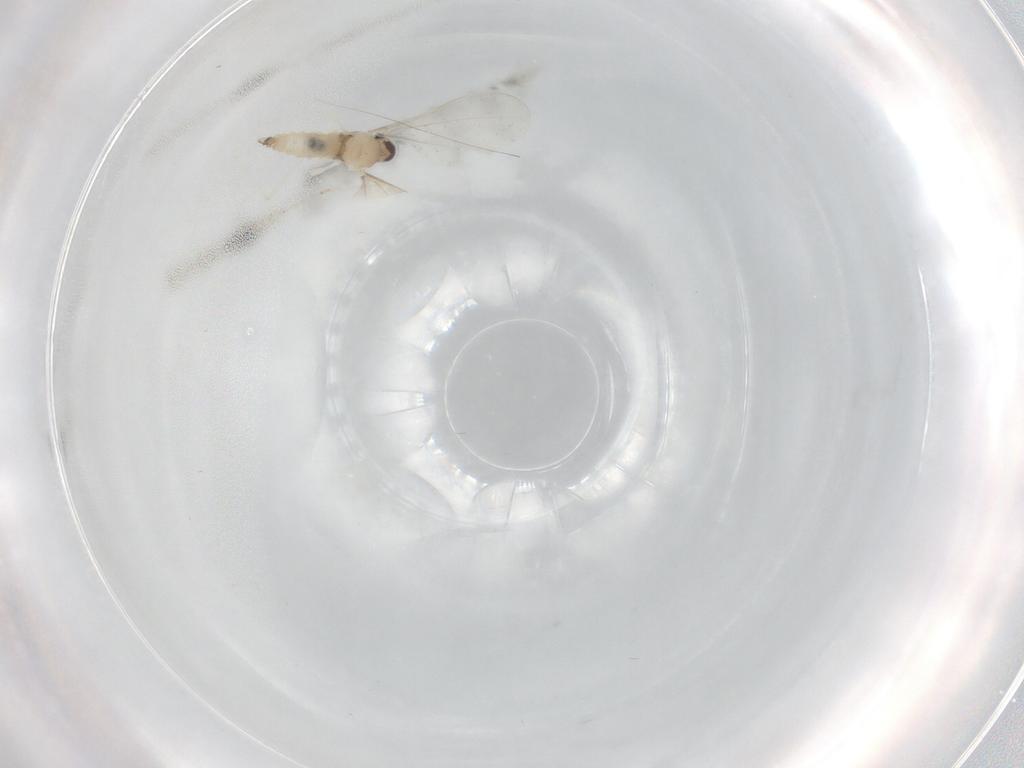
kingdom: Animalia
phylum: Arthropoda
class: Insecta
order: Diptera
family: Cecidomyiidae
